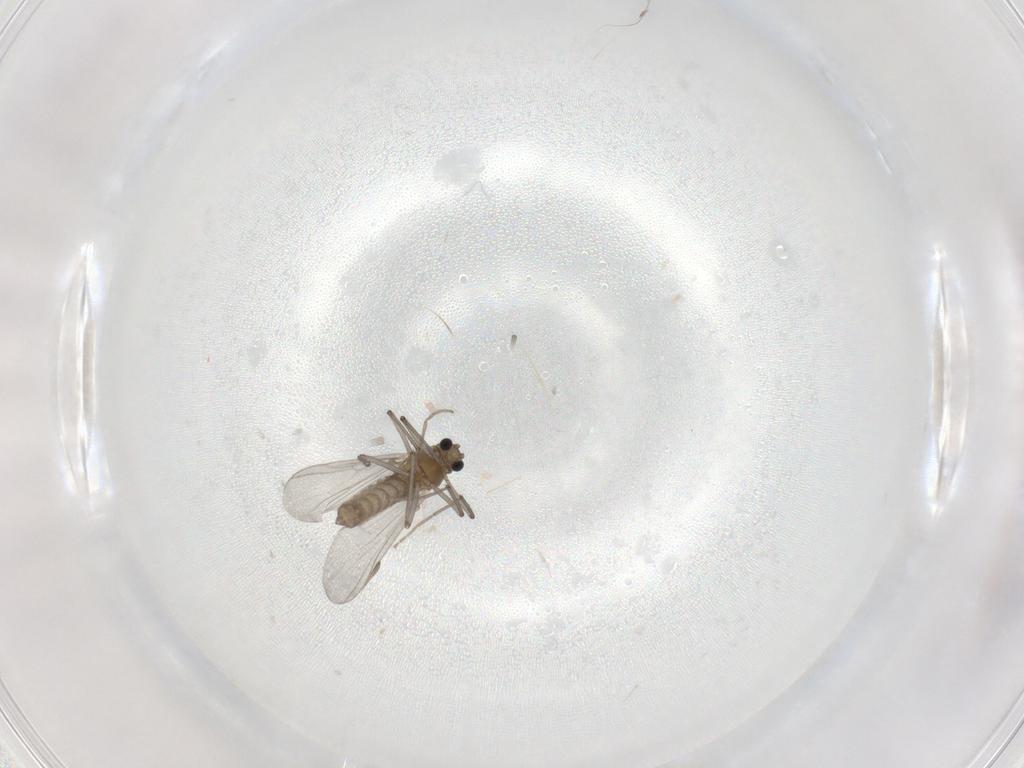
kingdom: Animalia
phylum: Arthropoda
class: Insecta
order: Diptera
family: Chironomidae
